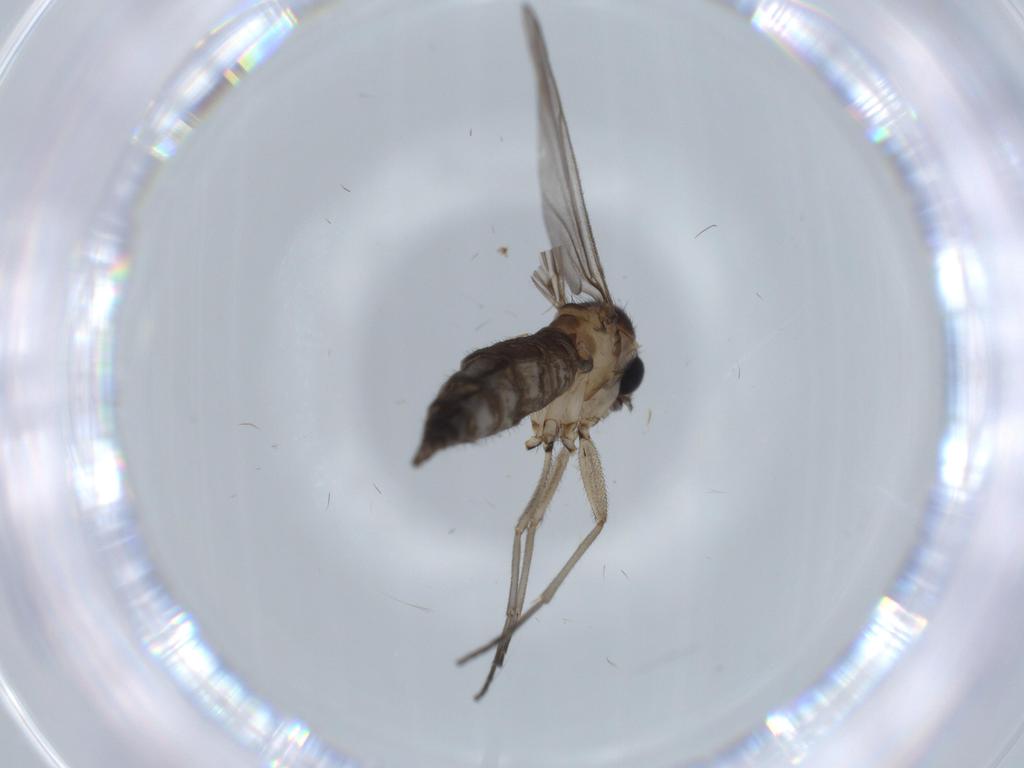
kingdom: Animalia
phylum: Arthropoda
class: Insecta
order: Diptera
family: Sciaridae
